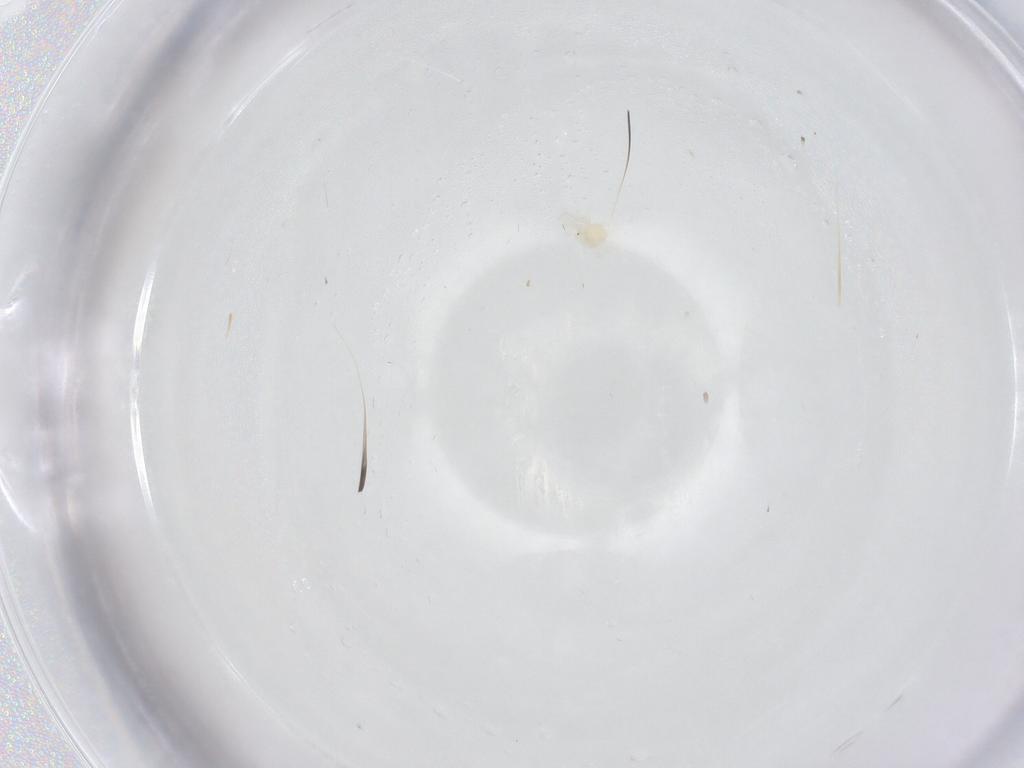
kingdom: Animalia
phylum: Arthropoda
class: Arachnida
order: Trombidiformes
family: Anystidae
